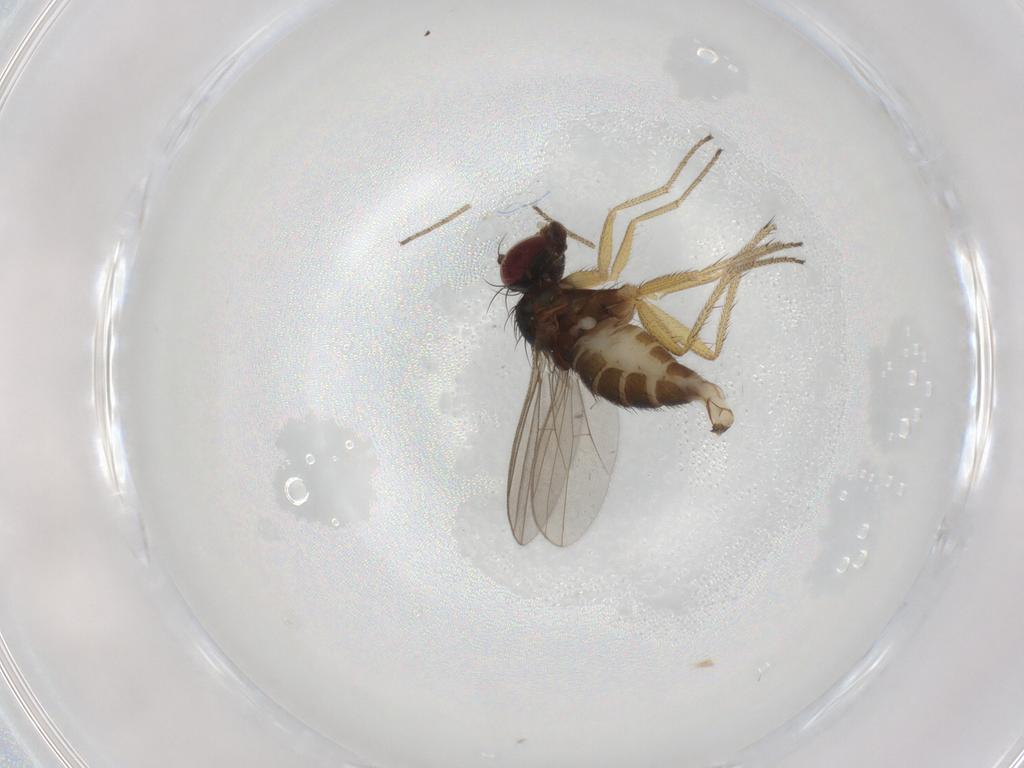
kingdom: Animalia
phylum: Arthropoda
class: Insecta
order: Diptera
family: Dolichopodidae
